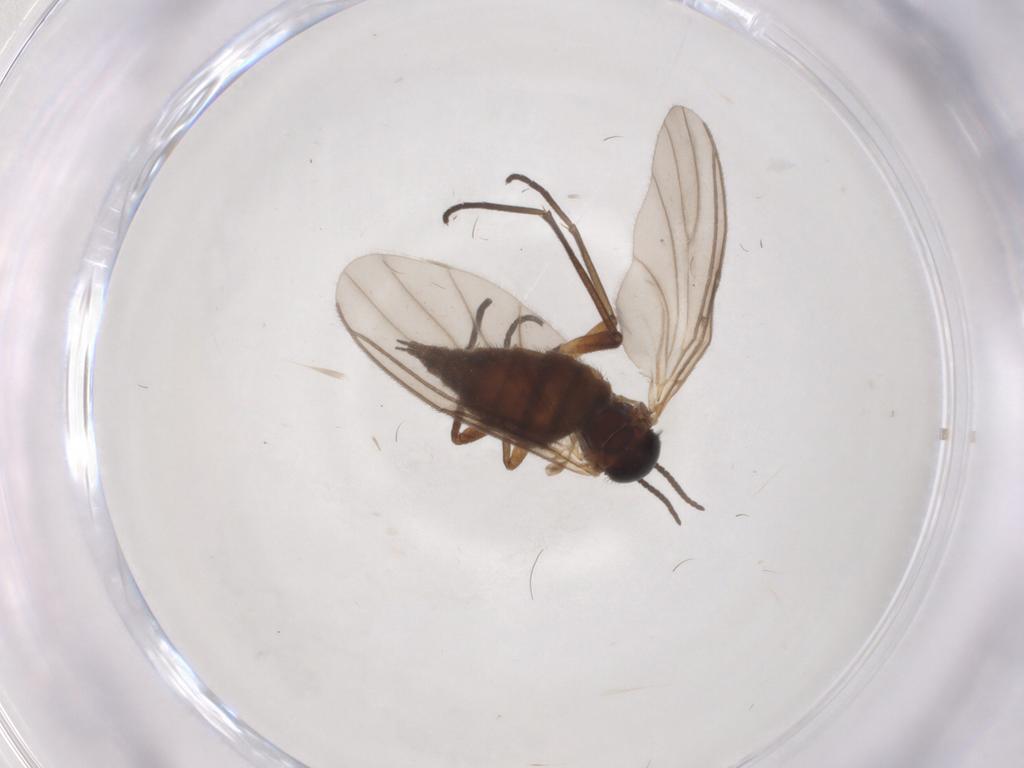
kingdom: Animalia
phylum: Arthropoda
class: Insecta
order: Diptera
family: Sciaridae
